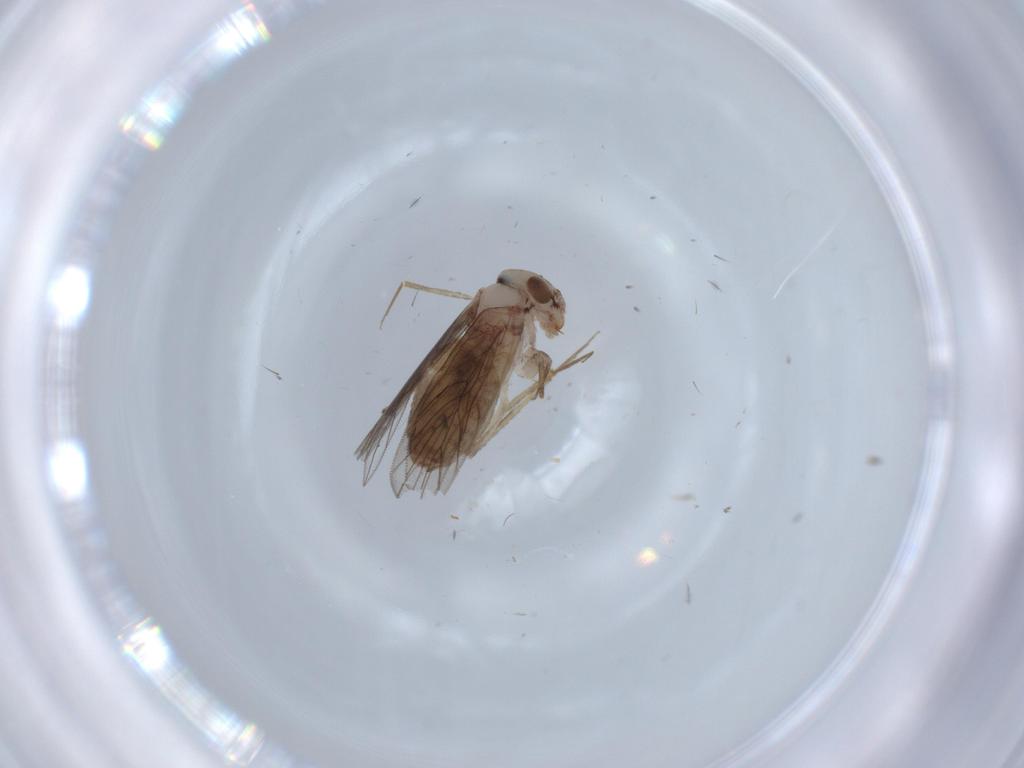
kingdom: Animalia
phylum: Arthropoda
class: Insecta
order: Psocodea
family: Lepidopsocidae
